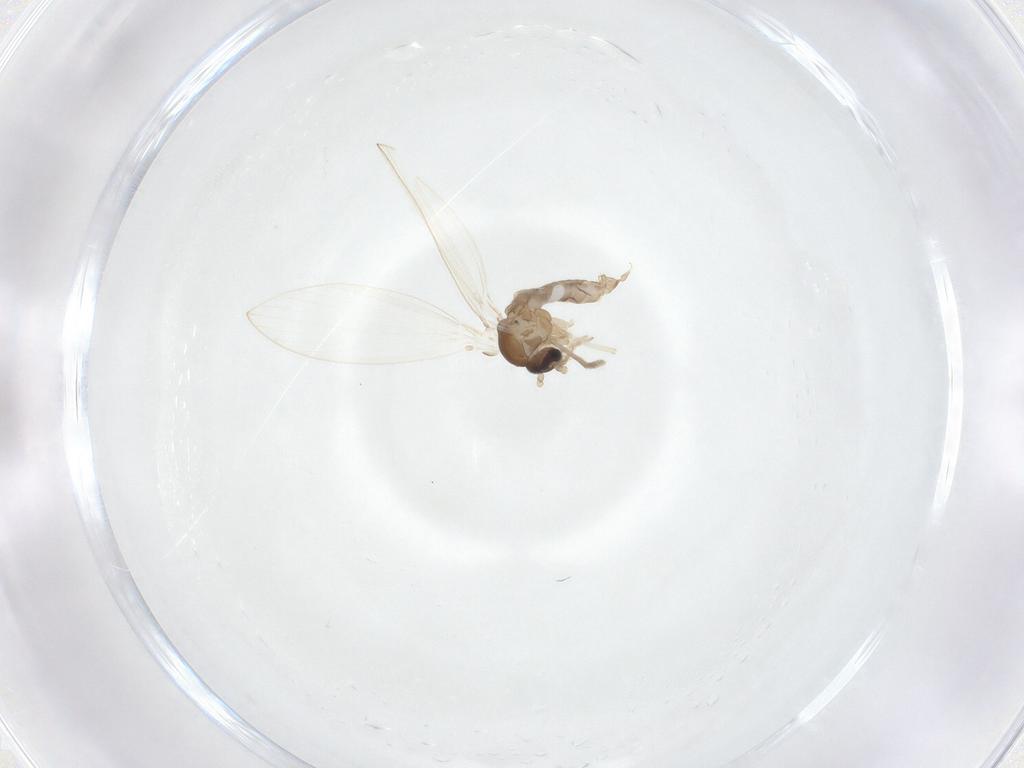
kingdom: Animalia
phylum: Arthropoda
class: Insecta
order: Diptera
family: Psychodidae
